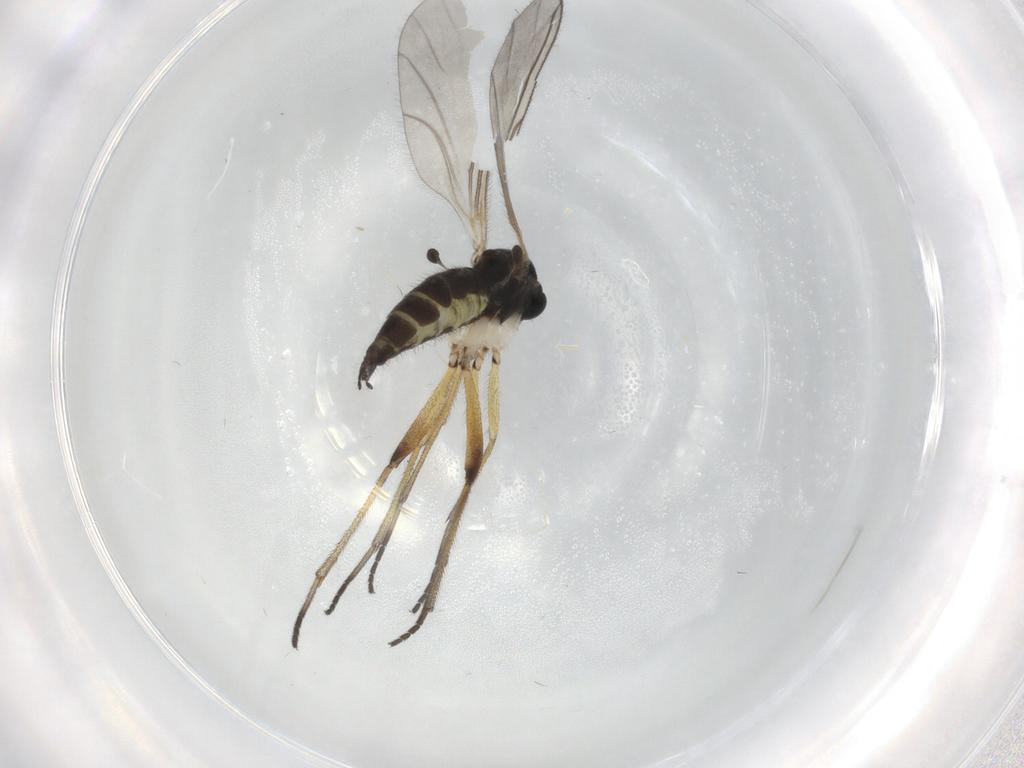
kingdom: Animalia
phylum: Arthropoda
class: Insecta
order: Diptera
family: Sciaridae
